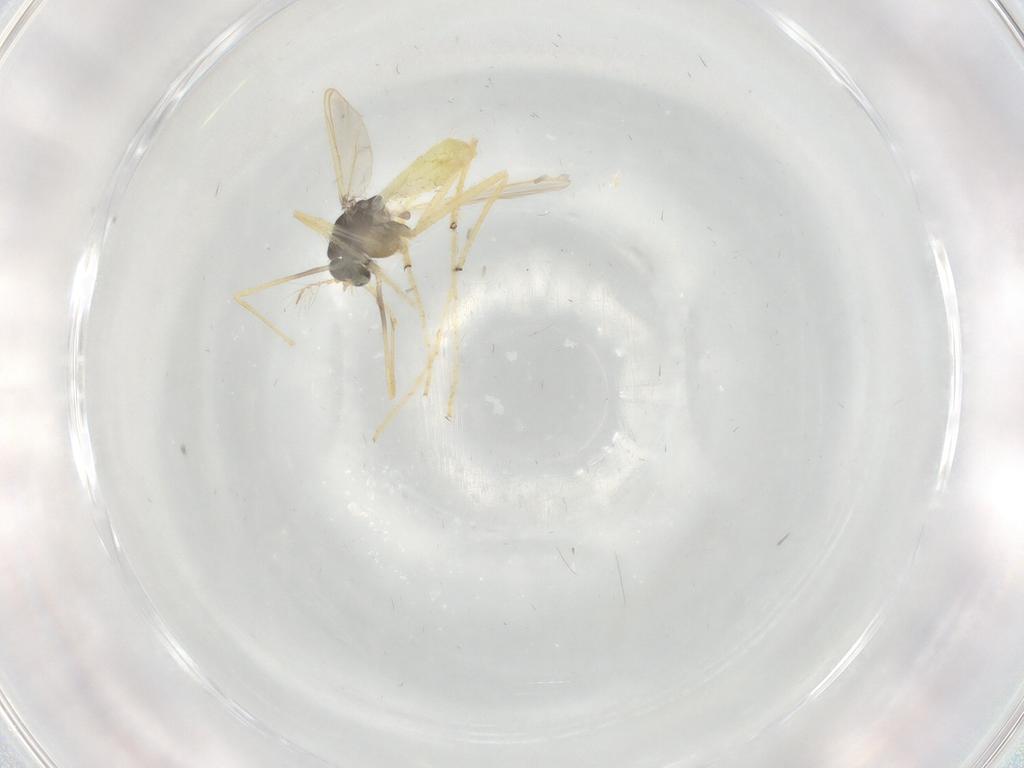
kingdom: Animalia
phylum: Arthropoda
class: Insecta
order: Diptera
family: Chironomidae
